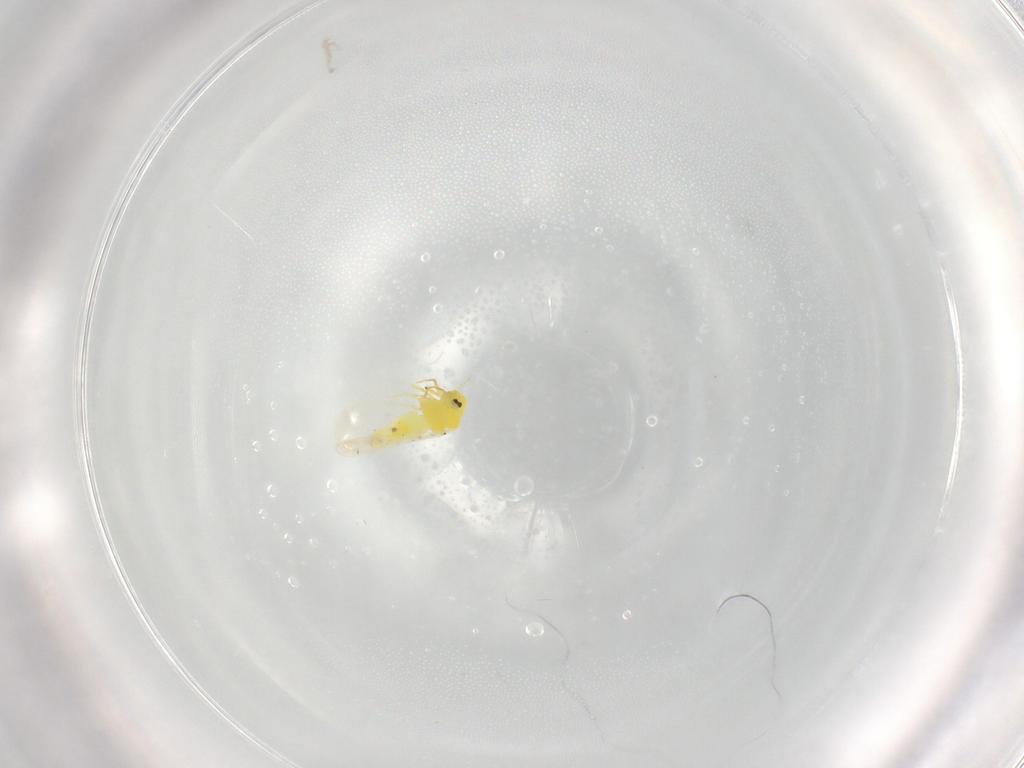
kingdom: Animalia
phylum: Arthropoda
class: Insecta
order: Hemiptera
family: Aleyrodidae
